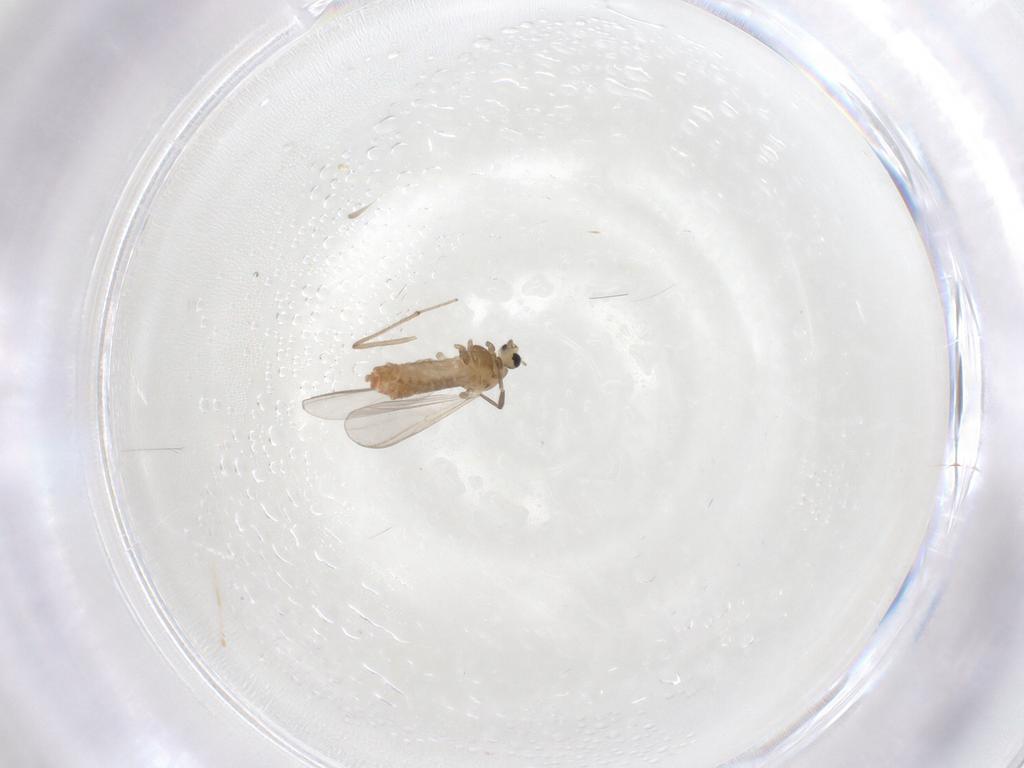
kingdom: Animalia
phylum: Arthropoda
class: Insecta
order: Diptera
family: Chironomidae
